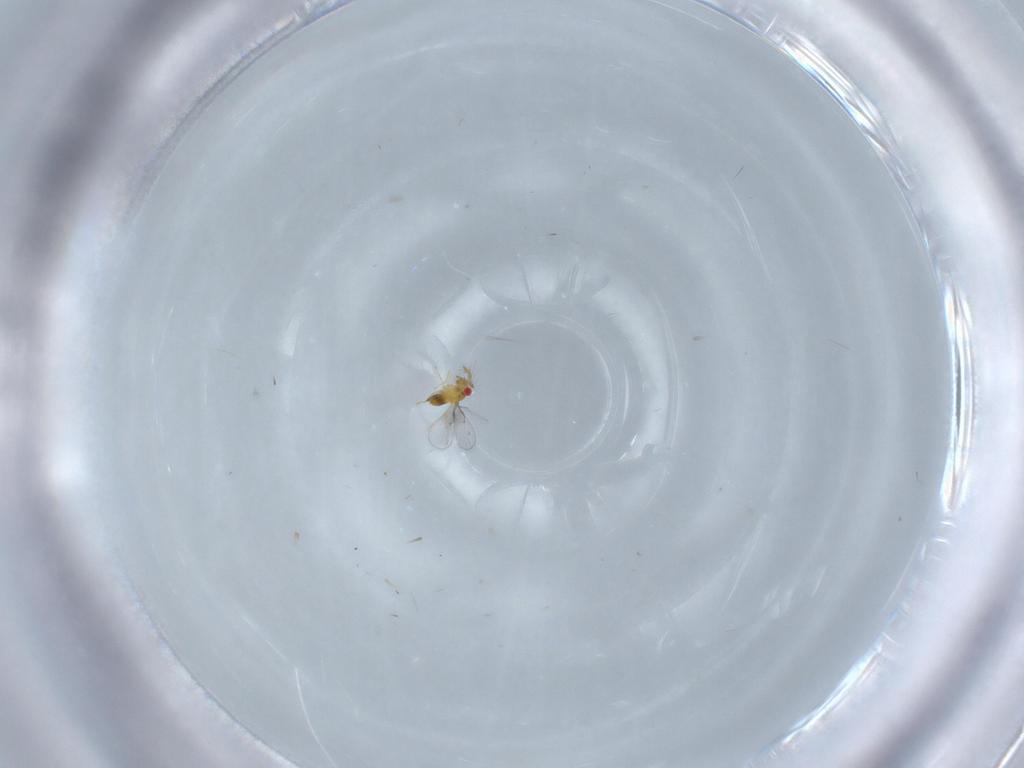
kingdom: Animalia
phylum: Arthropoda
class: Insecta
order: Hymenoptera
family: Trichogrammatidae
